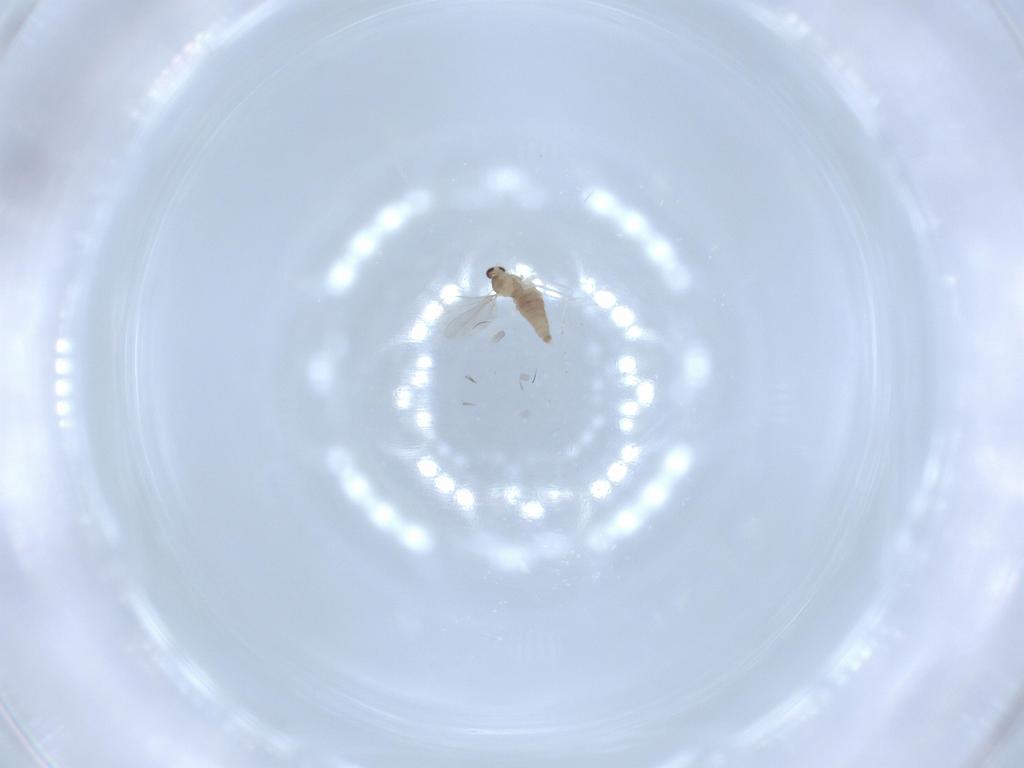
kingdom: Animalia
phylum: Arthropoda
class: Insecta
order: Diptera
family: Cecidomyiidae
